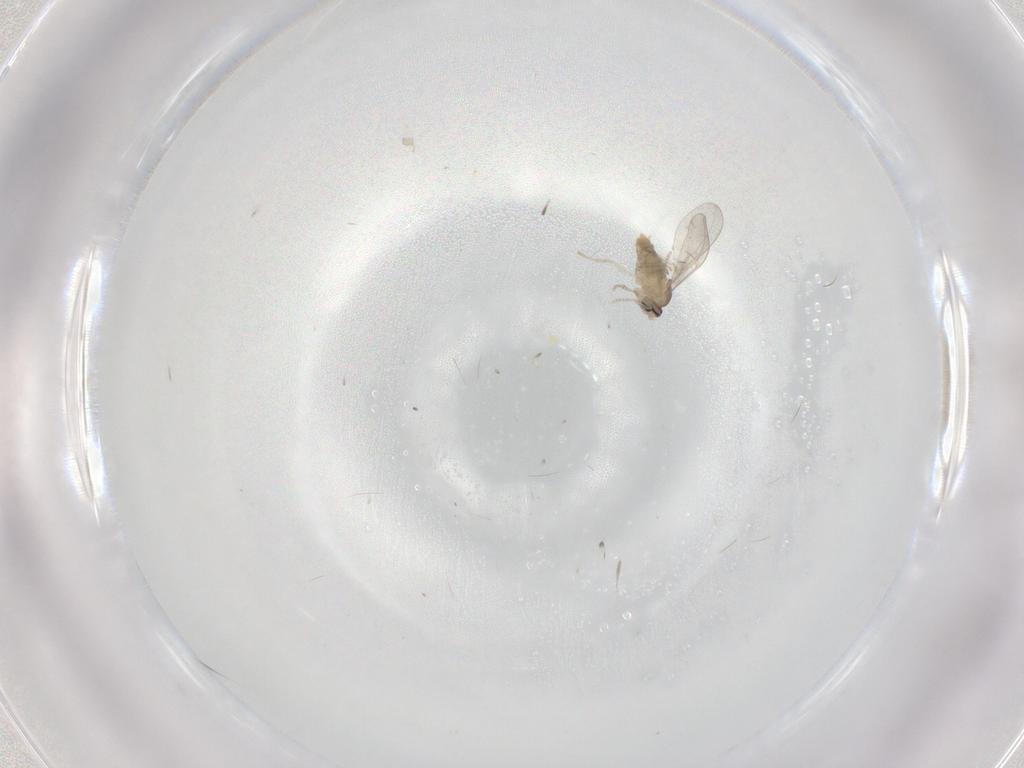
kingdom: Animalia
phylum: Arthropoda
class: Insecta
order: Diptera
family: Cecidomyiidae
